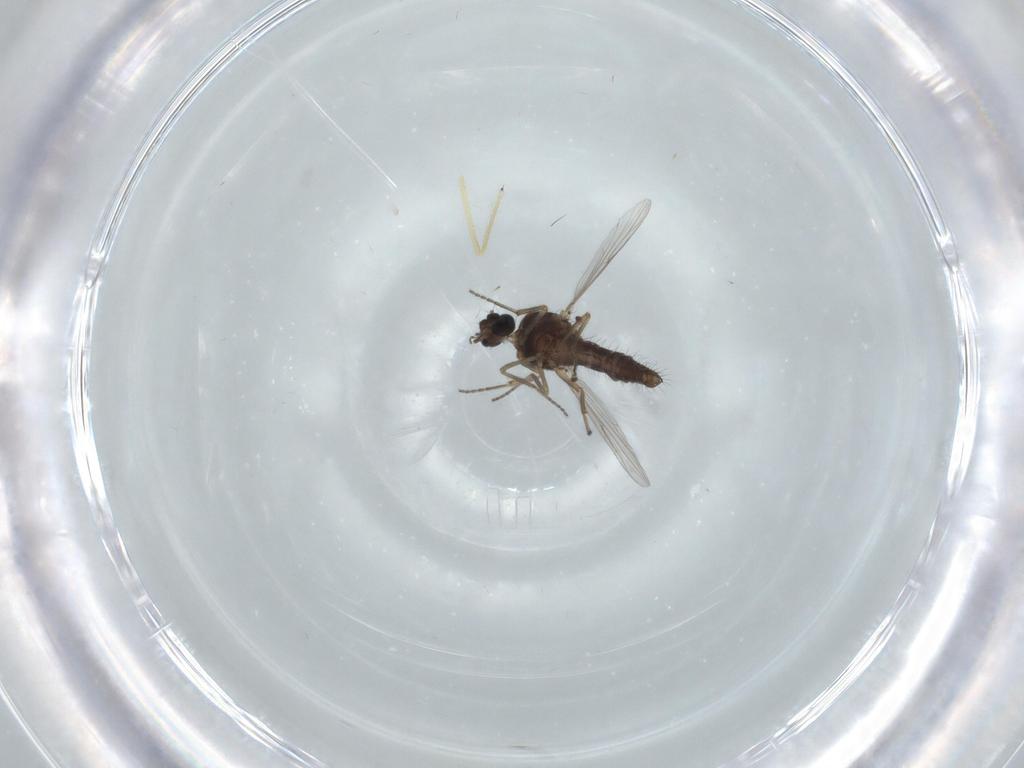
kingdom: Animalia
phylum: Arthropoda
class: Insecta
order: Diptera
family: Ceratopogonidae
